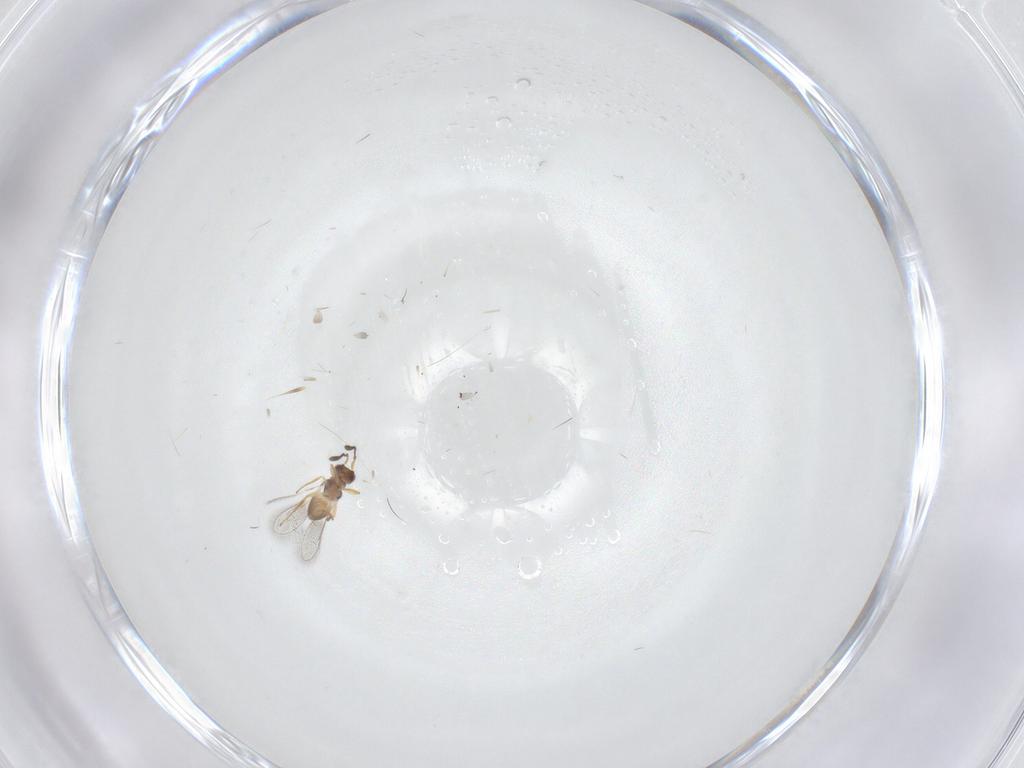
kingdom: Animalia
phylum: Arthropoda
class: Insecta
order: Hymenoptera
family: Mymaridae
